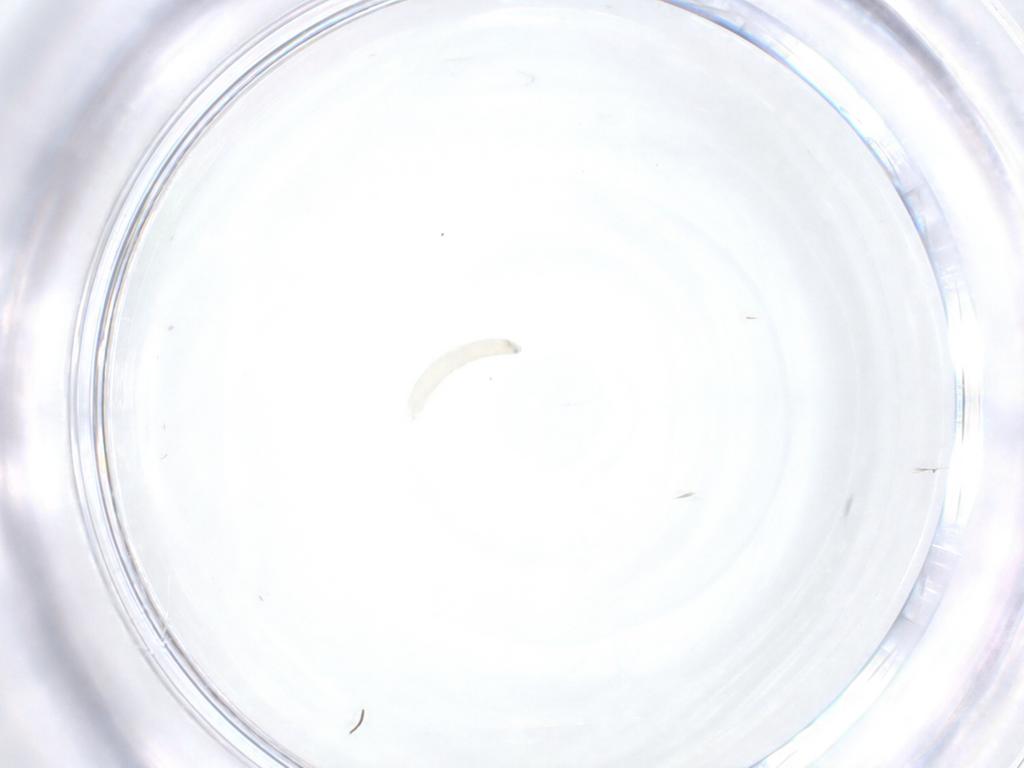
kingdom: Animalia
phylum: Arthropoda
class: Insecta
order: Diptera
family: Tachinidae
